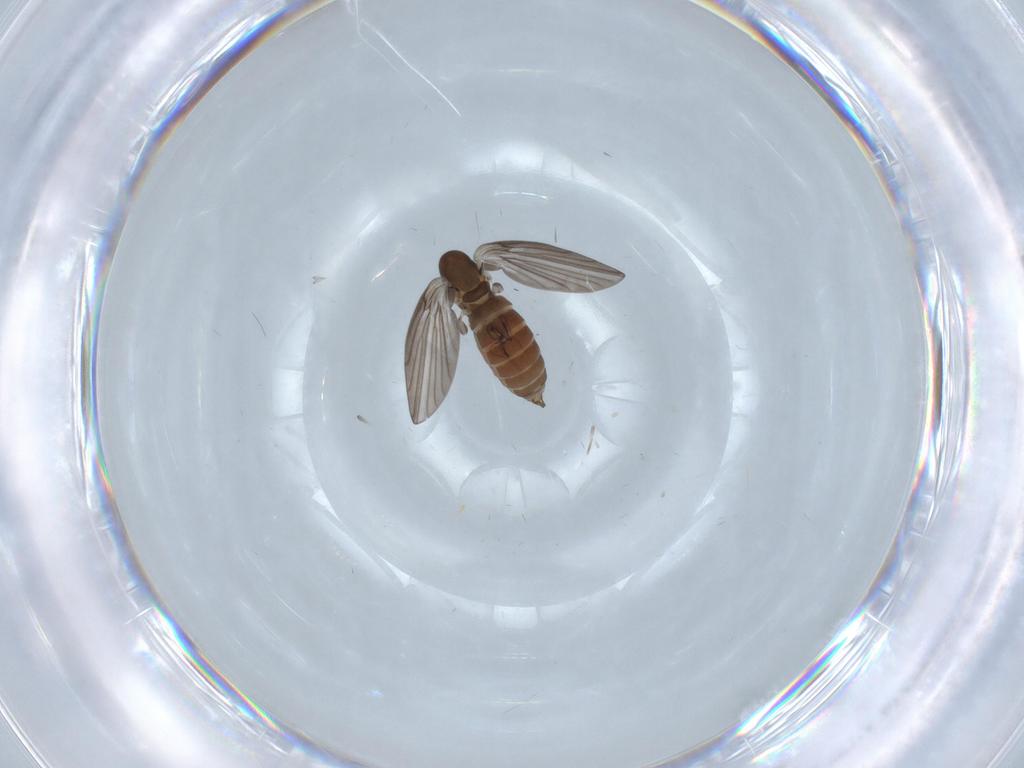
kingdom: Animalia
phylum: Arthropoda
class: Insecta
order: Diptera
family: Psychodidae
